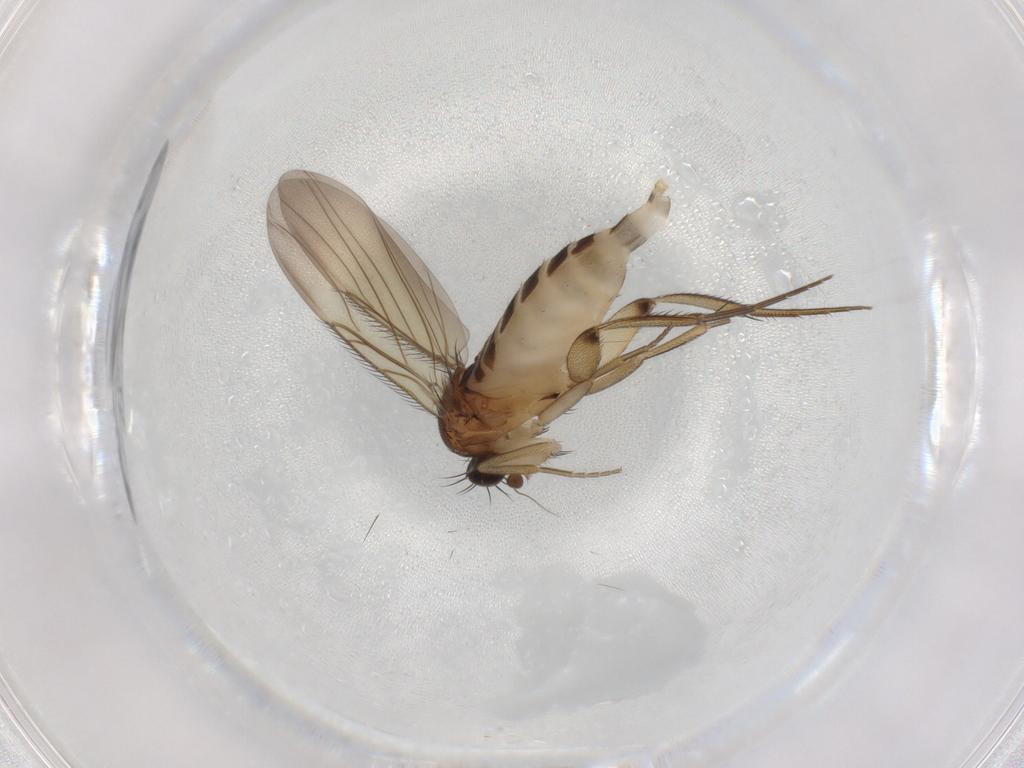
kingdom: Animalia
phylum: Arthropoda
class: Insecta
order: Diptera
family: Phoridae
